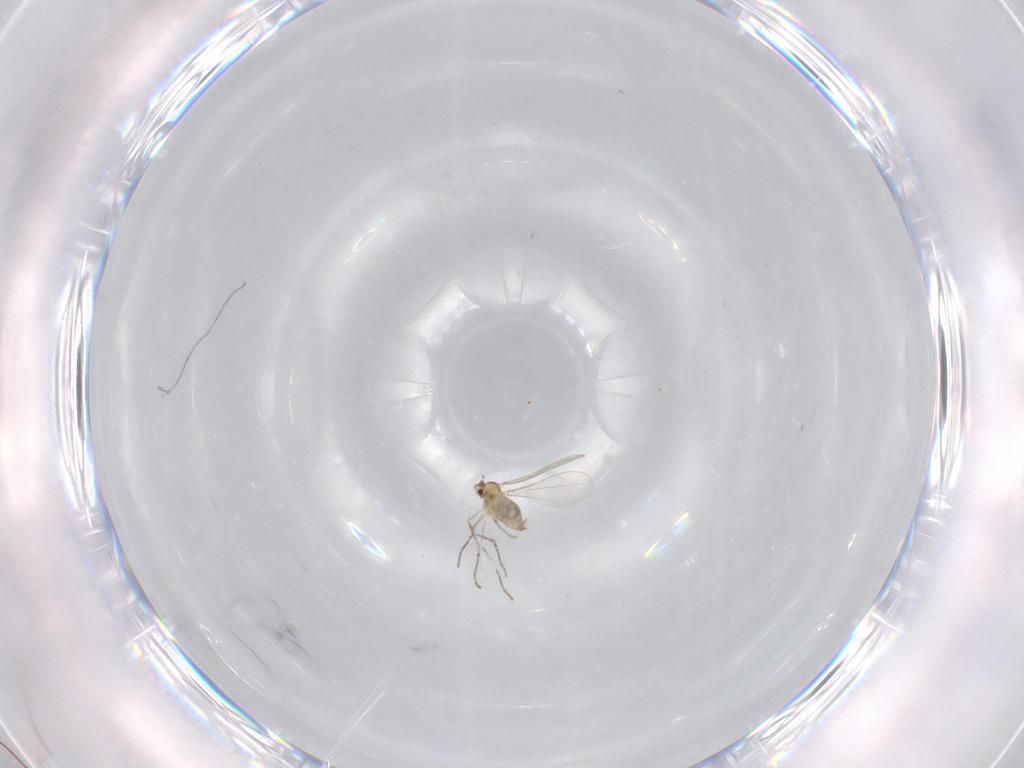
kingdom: Animalia
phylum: Arthropoda
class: Insecta
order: Diptera
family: Cecidomyiidae
